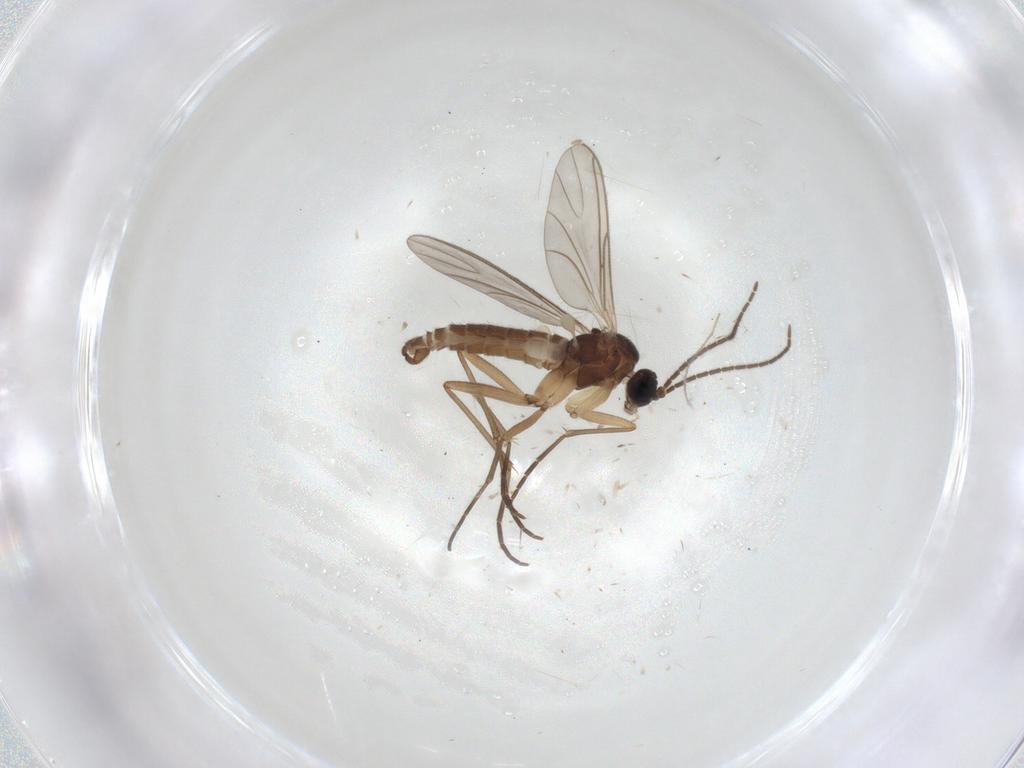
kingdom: Animalia
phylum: Arthropoda
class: Insecta
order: Diptera
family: Sciaridae
